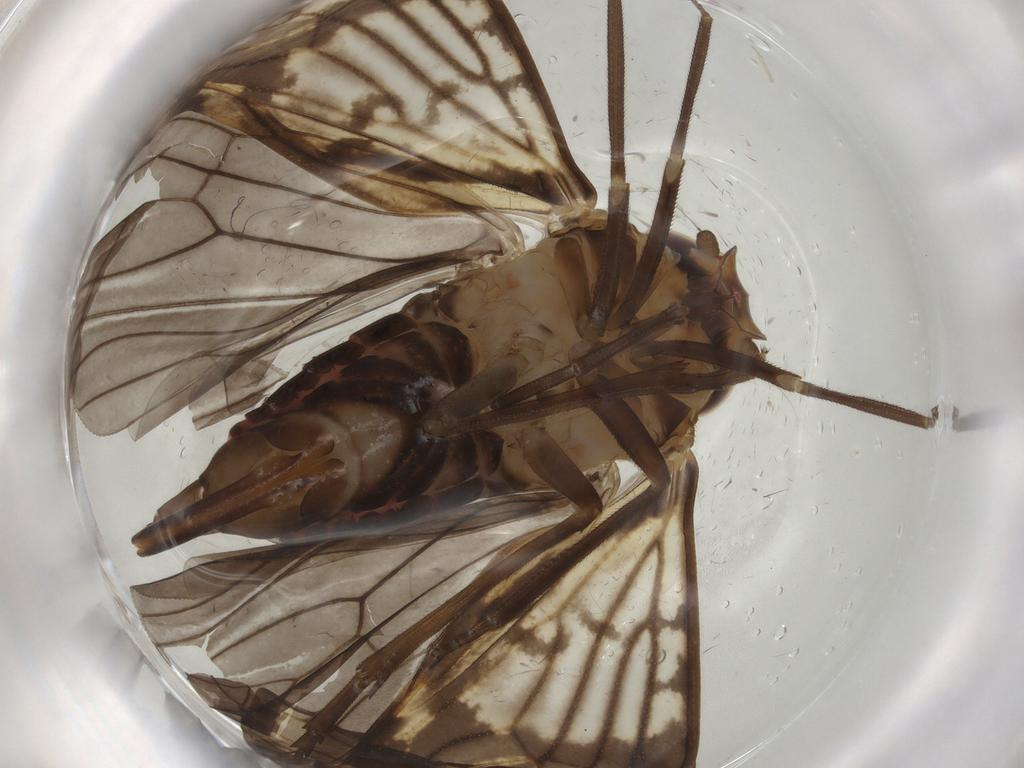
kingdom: Animalia
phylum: Arthropoda
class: Insecta
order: Hemiptera
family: Cixiidae
